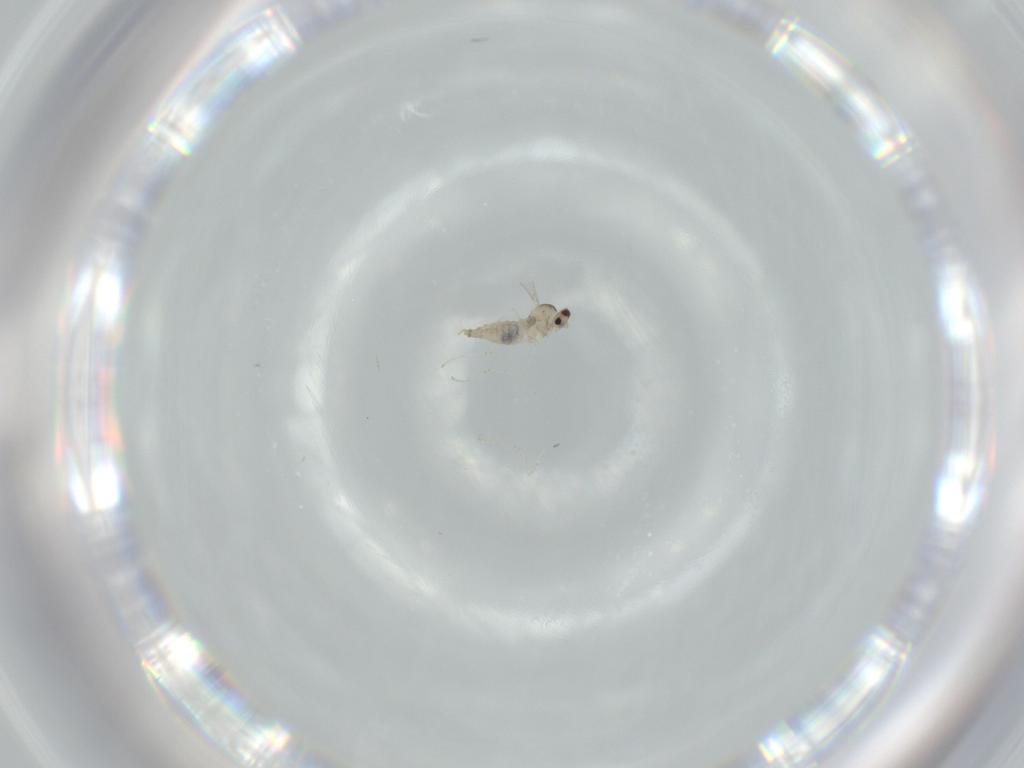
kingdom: Animalia
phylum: Arthropoda
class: Insecta
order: Diptera
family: Cecidomyiidae
